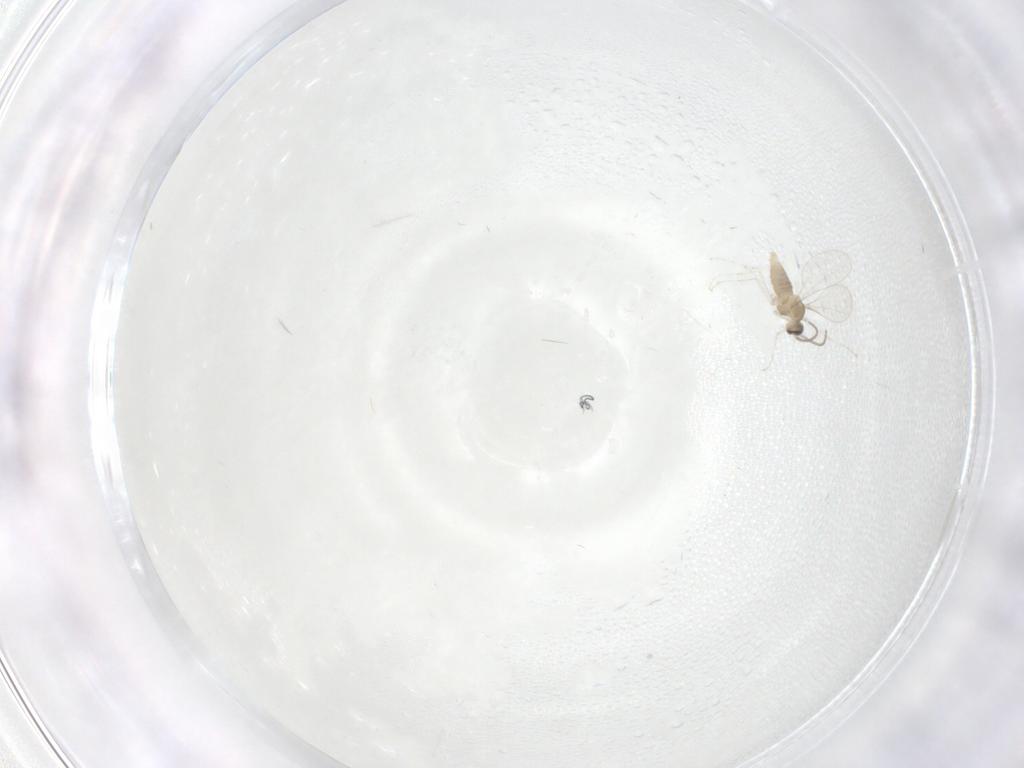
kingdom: Animalia
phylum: Arthropoda
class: Insecta
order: Diptera
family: Cecidomyiidae
